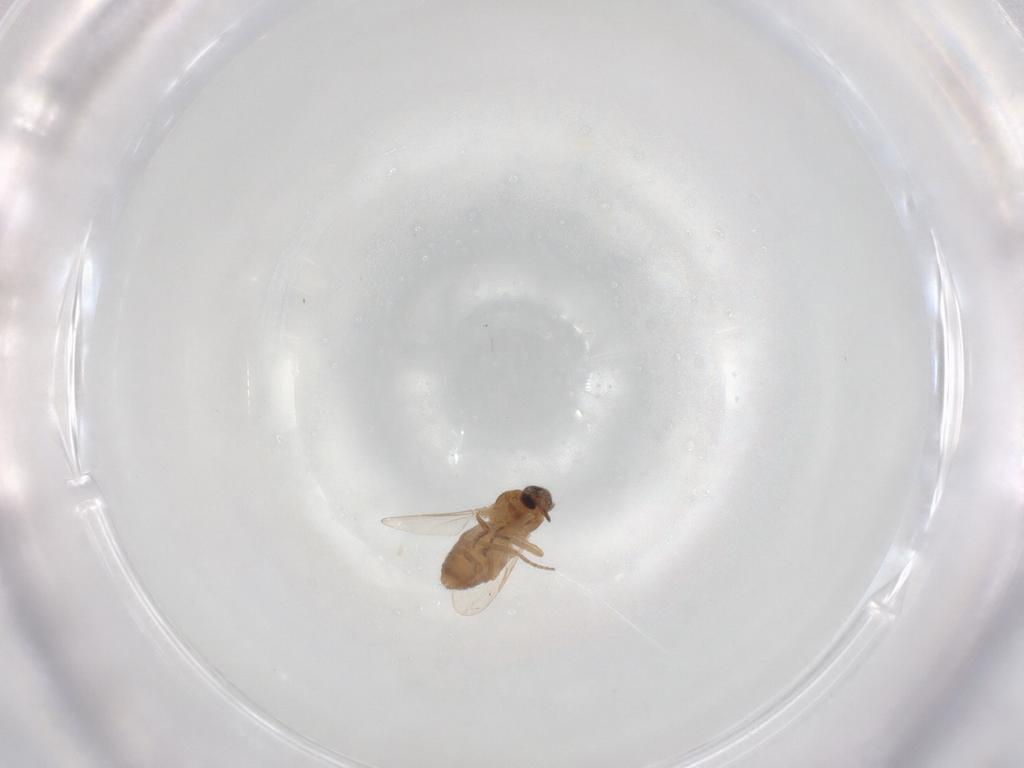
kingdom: Animalia
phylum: Arthropoda
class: Insecta
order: Diptera
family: Ceratopogonidae
